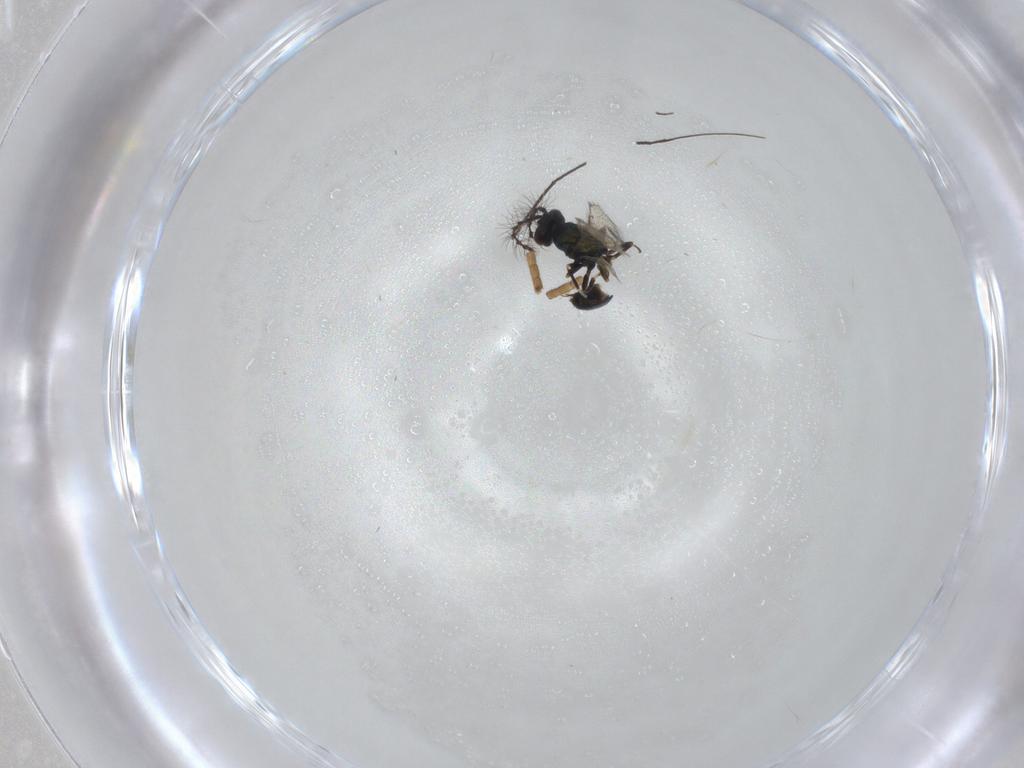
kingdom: Animalia
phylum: Arthropoda
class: Insecta
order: Hymenoptera
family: Eulophidae
